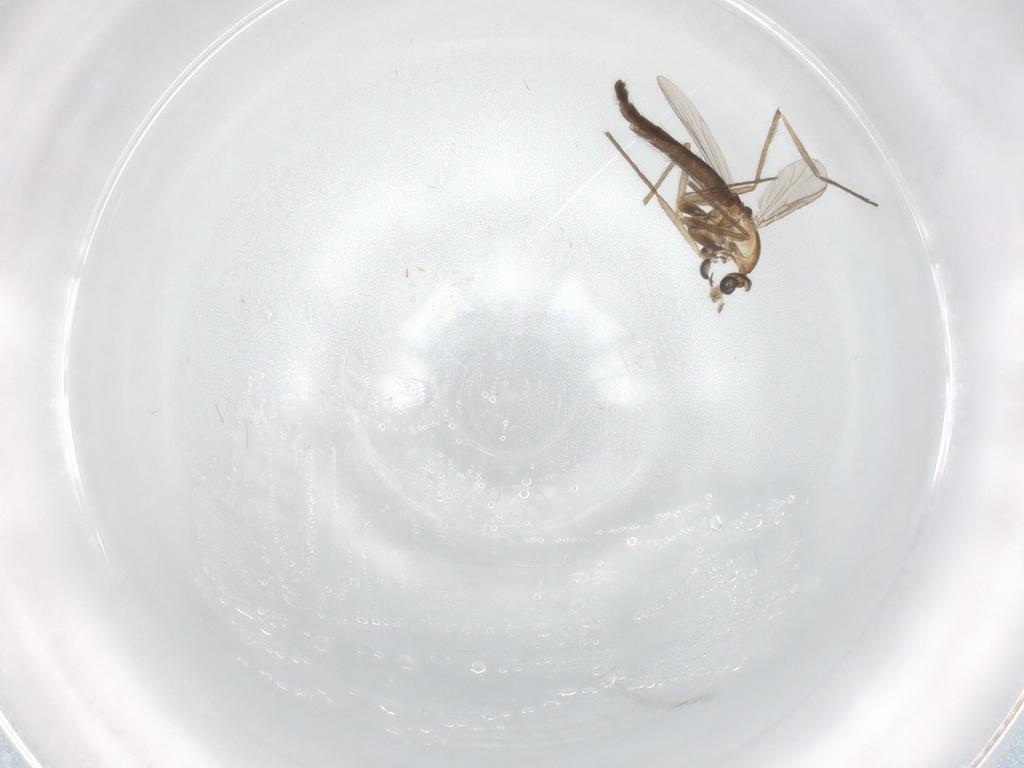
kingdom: Animalia
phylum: Arthropoda
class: Insecta
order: Diptera
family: Chironomidae
